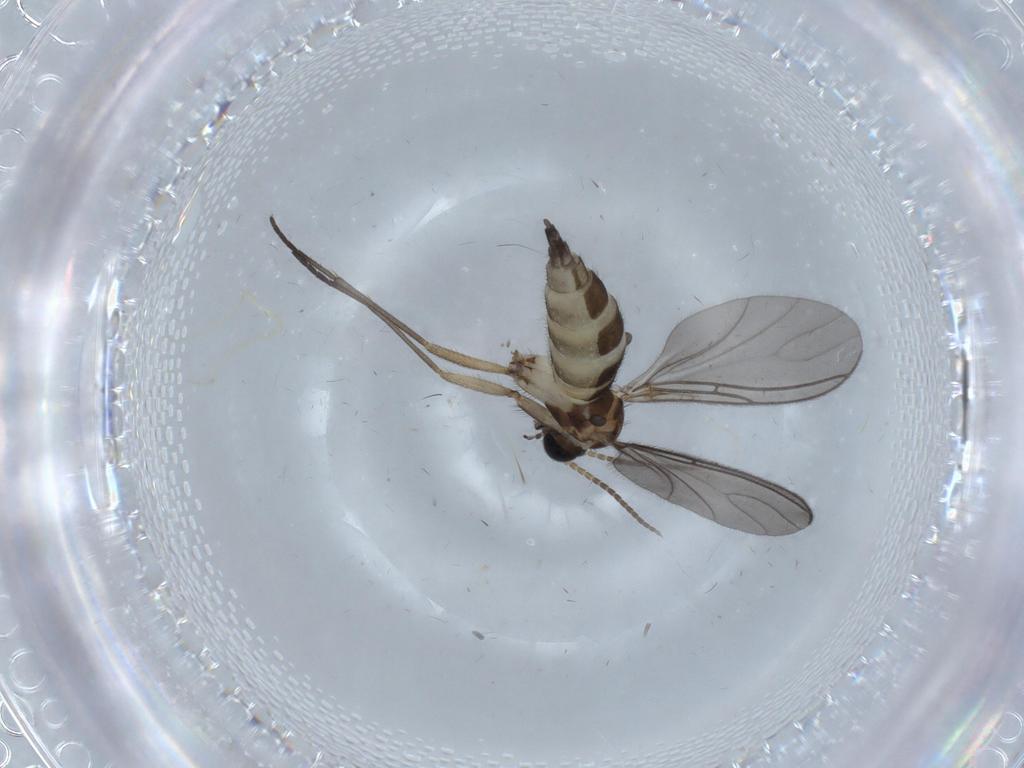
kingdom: Animalia
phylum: Arthropoda
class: Insecta
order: Diptera
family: Sciaridae
